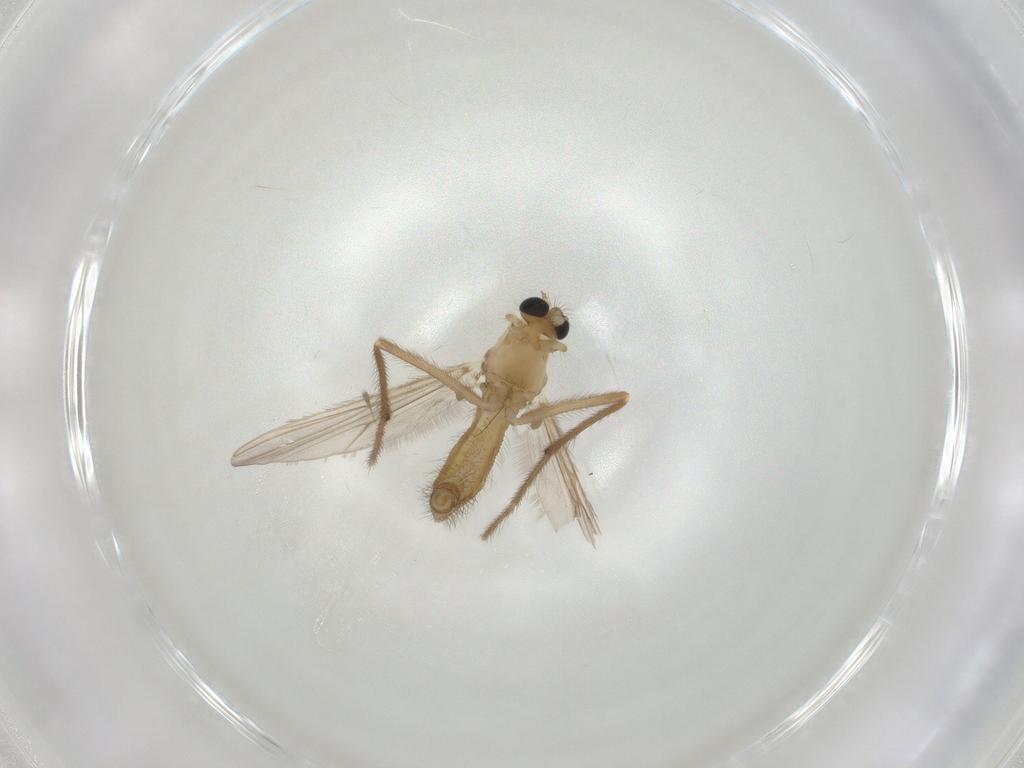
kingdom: Animalia
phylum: Arthropoda
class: Insecta
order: Diptera
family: Chironomidae
